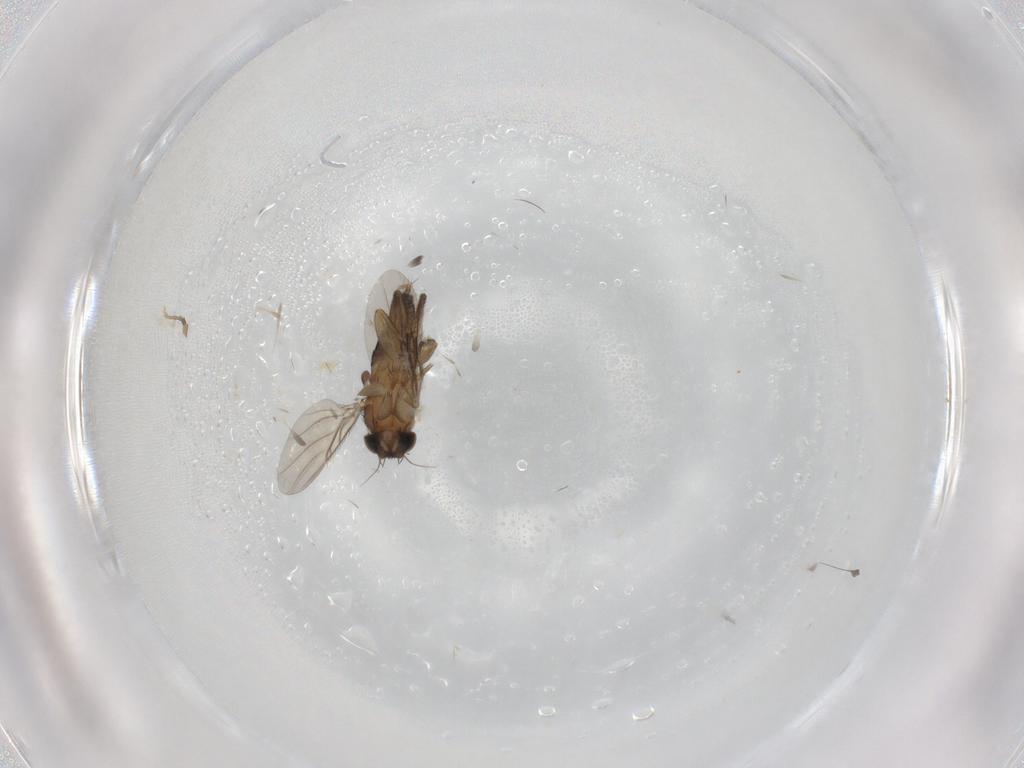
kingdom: Animalia
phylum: Arthropoda
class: Insecta
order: Diptera
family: Phoridae
